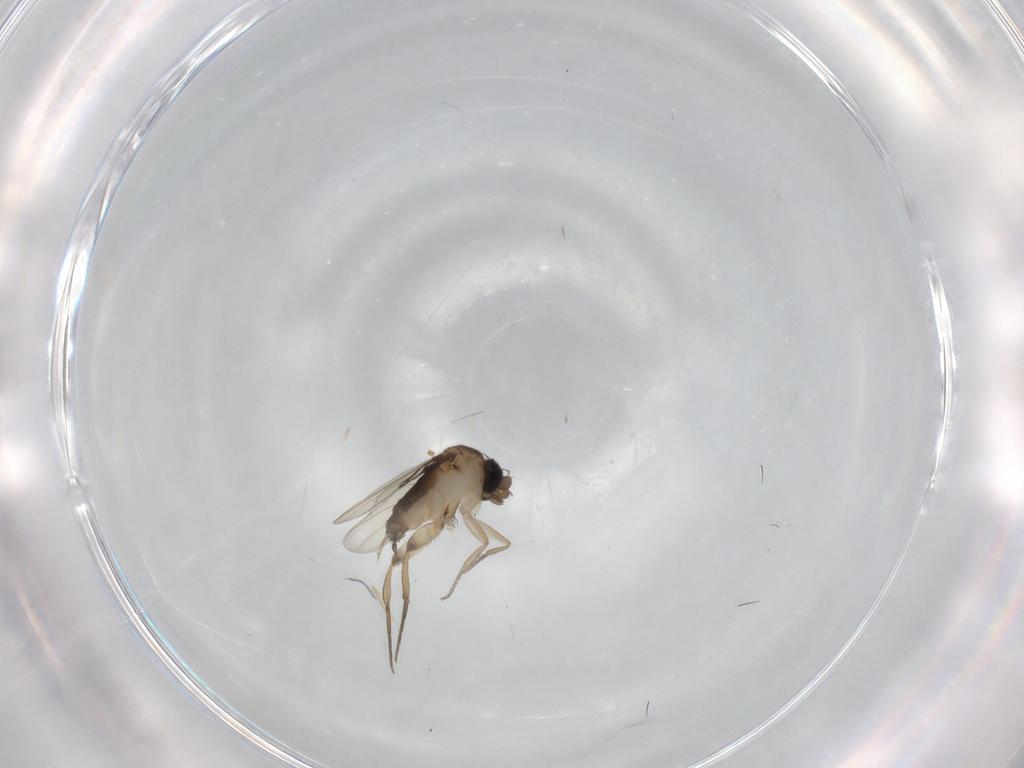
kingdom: Animalia
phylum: Arthropoda
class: Insecta
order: Diptera
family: Phoridae
